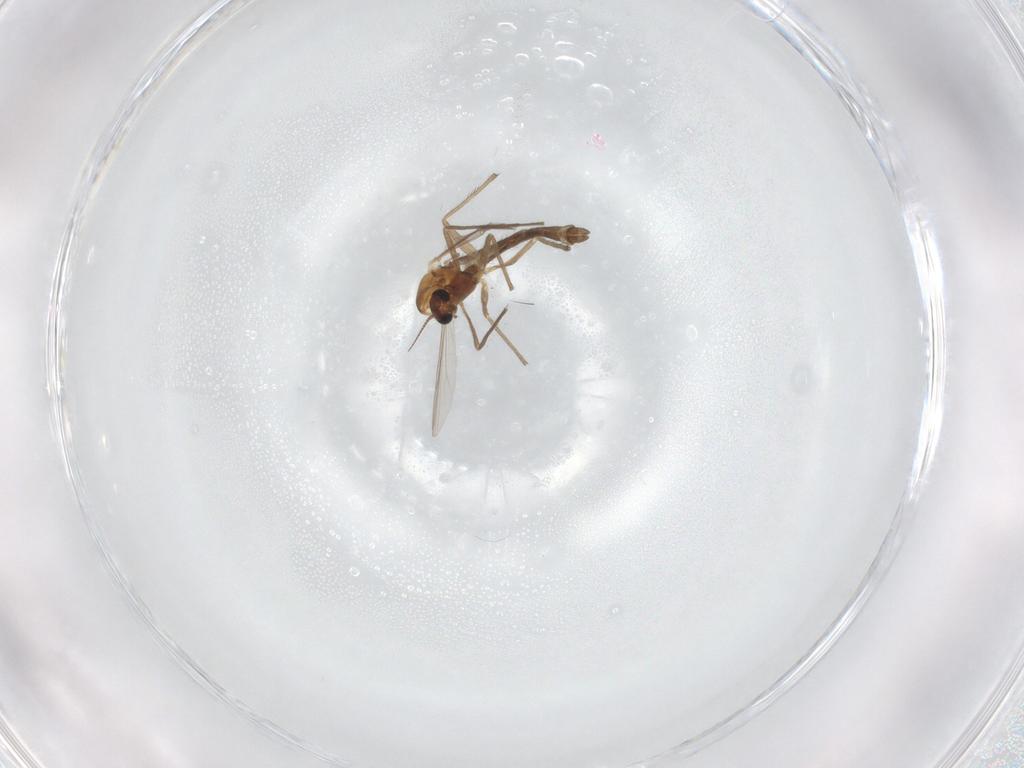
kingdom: Animalia
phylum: Arthropoda
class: Insecta
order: Diptera
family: Chironomidae
